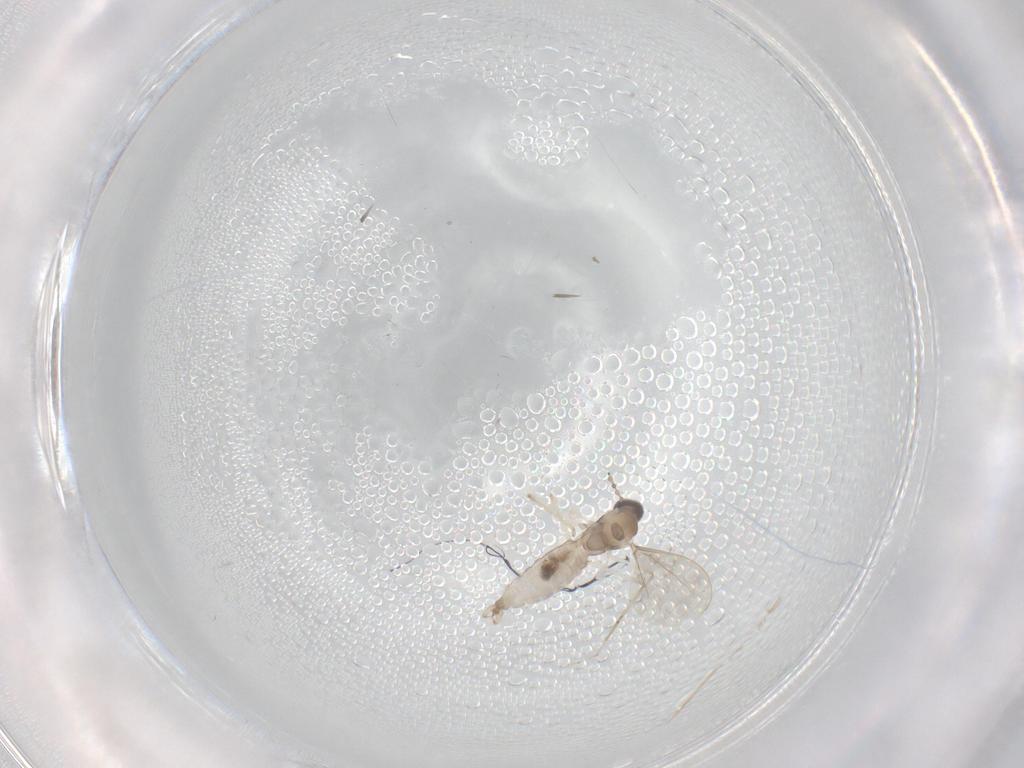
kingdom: Animalia
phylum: Arthropoda
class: Insecta
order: Diptera
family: Cecidomyiidae
